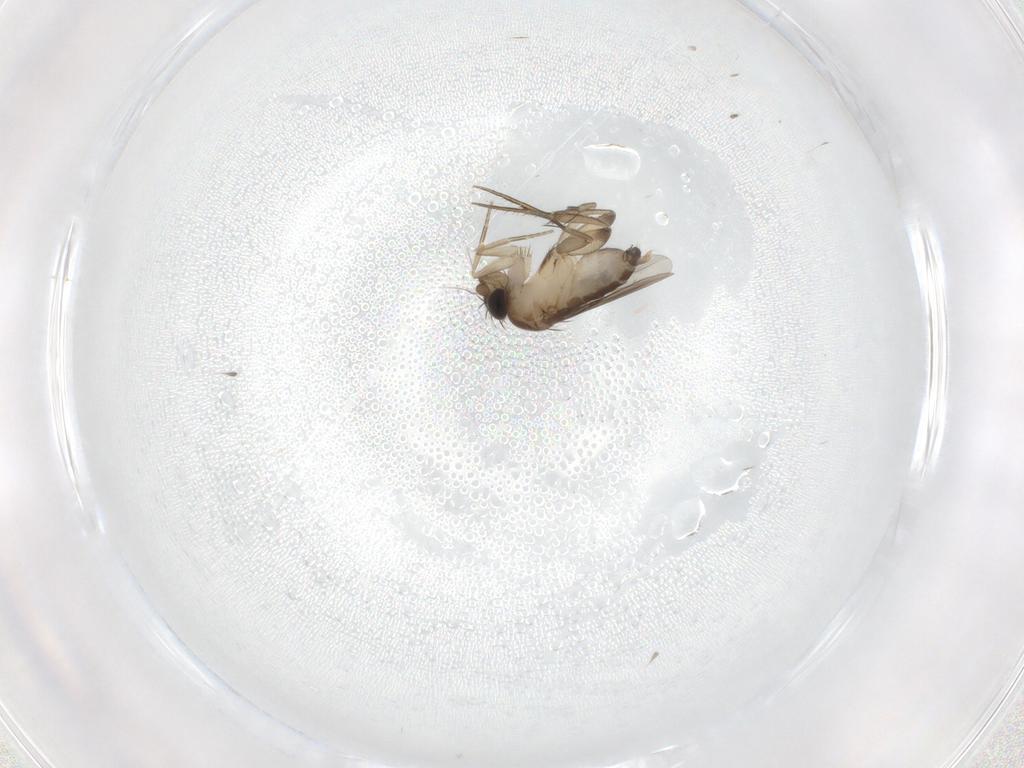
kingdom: Animalia
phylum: Arthropoda
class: Insecta
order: Diptera
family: Phoridae
